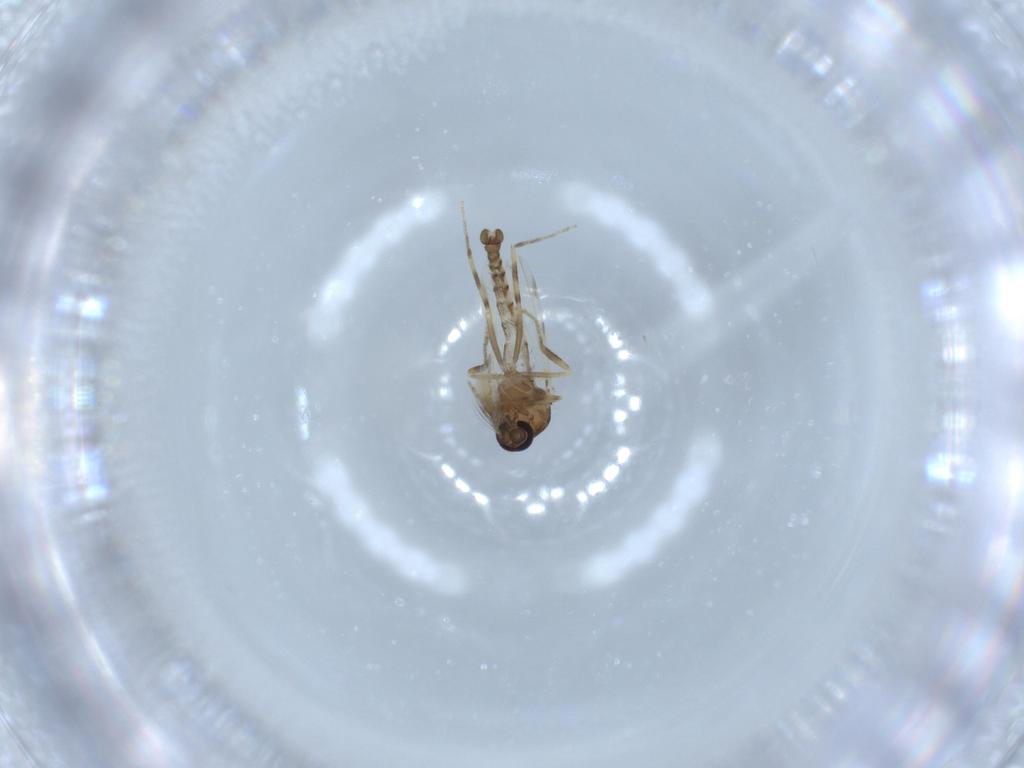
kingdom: Animalia
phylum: Arthropoda
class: Insecta
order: Diptera
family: Ceratopogonidae
